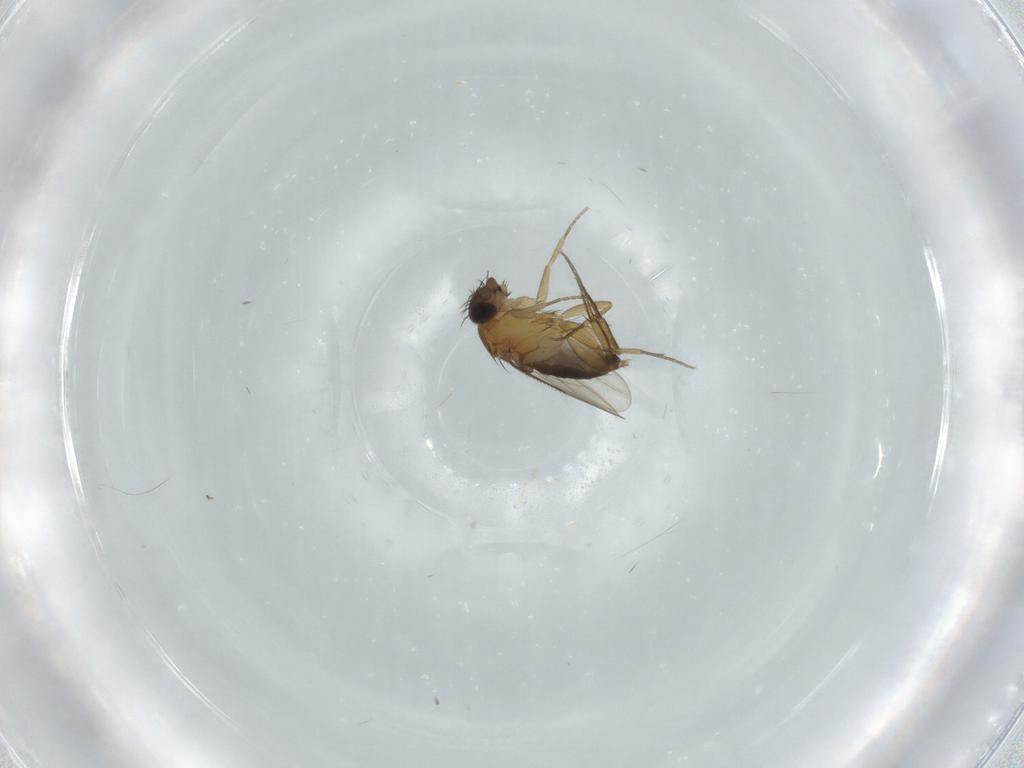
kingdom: Animalia
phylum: Arthropoda
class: Insecta
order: Diptera
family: Phoridae
